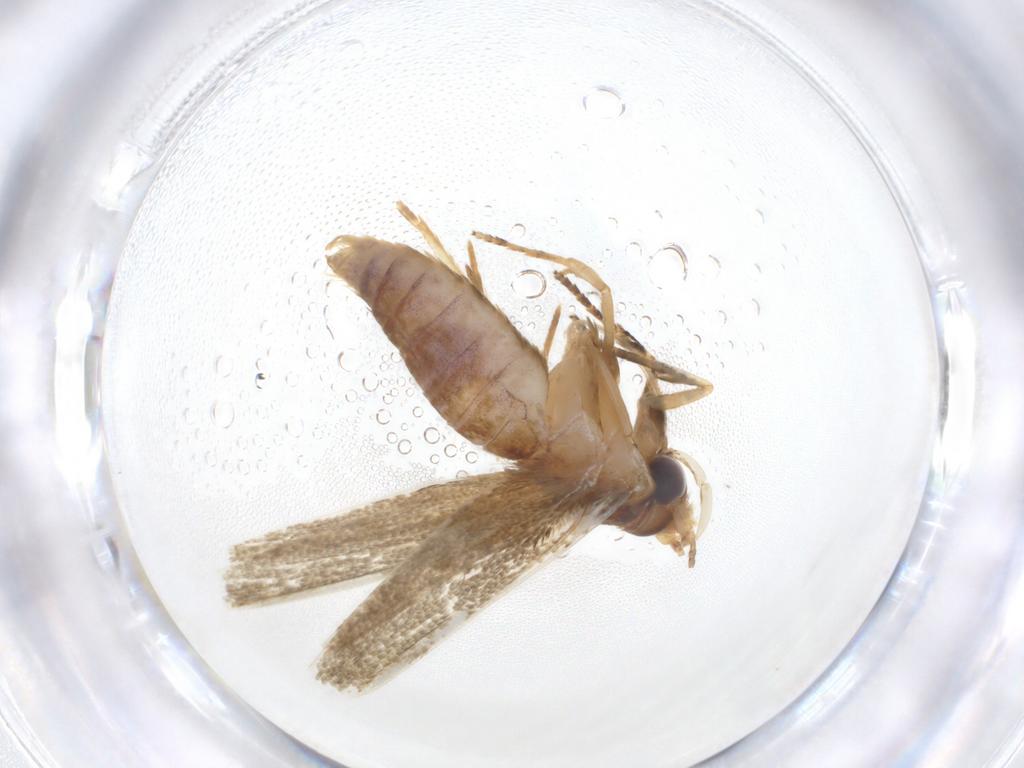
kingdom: Animalia
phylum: Arthropoda
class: Insecta
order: Lepidoptera
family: Blastobasidae
